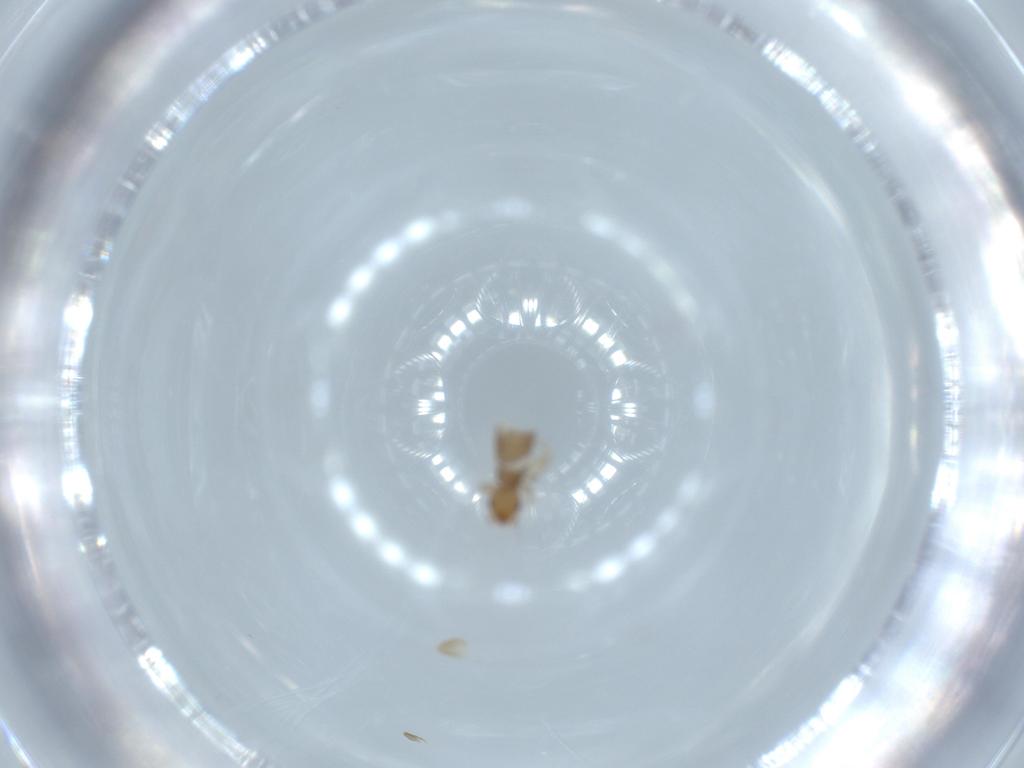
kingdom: Animalia
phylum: Arthropoda
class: Insecta
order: Psocodea
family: Liposcelididae
